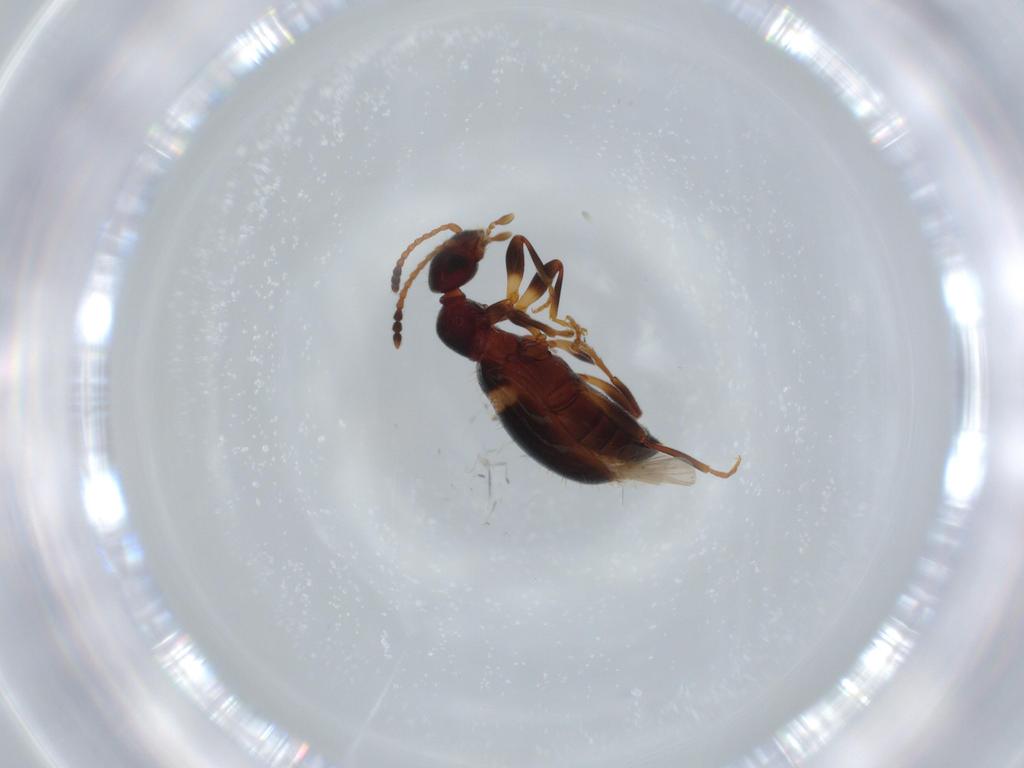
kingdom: Animalia
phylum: Arthropoda
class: Insecta
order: Coleoptera
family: Anthicidae
